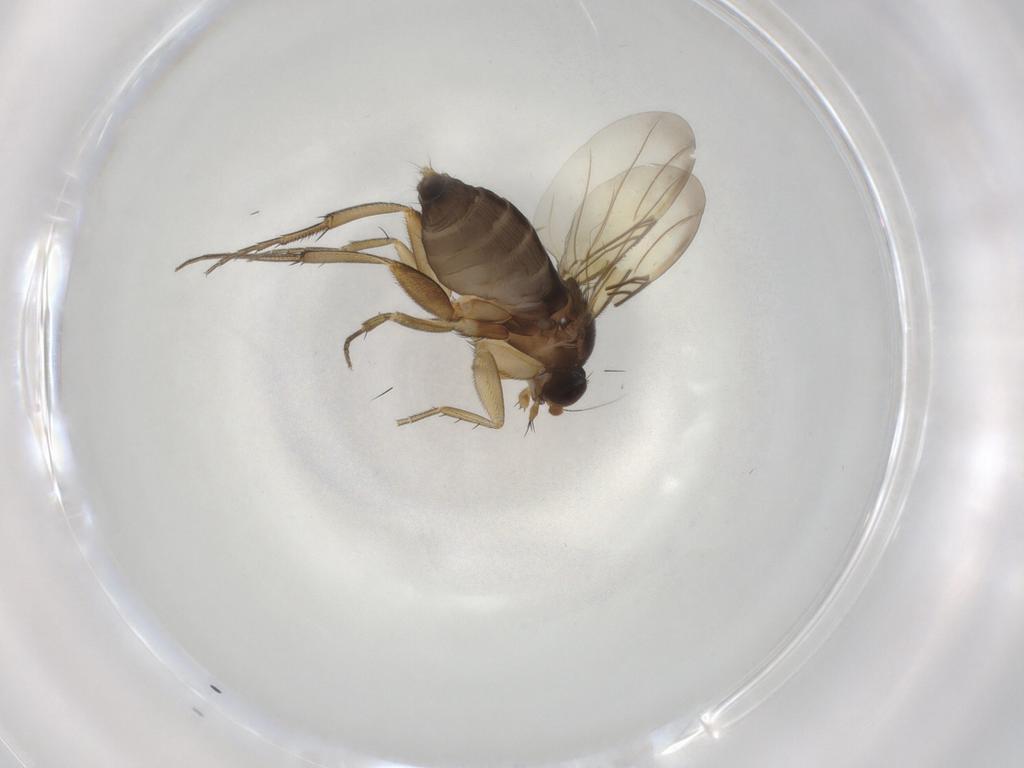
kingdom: Animalia
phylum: Arthropoda
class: Insecta
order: Diptera
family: Phoridae
